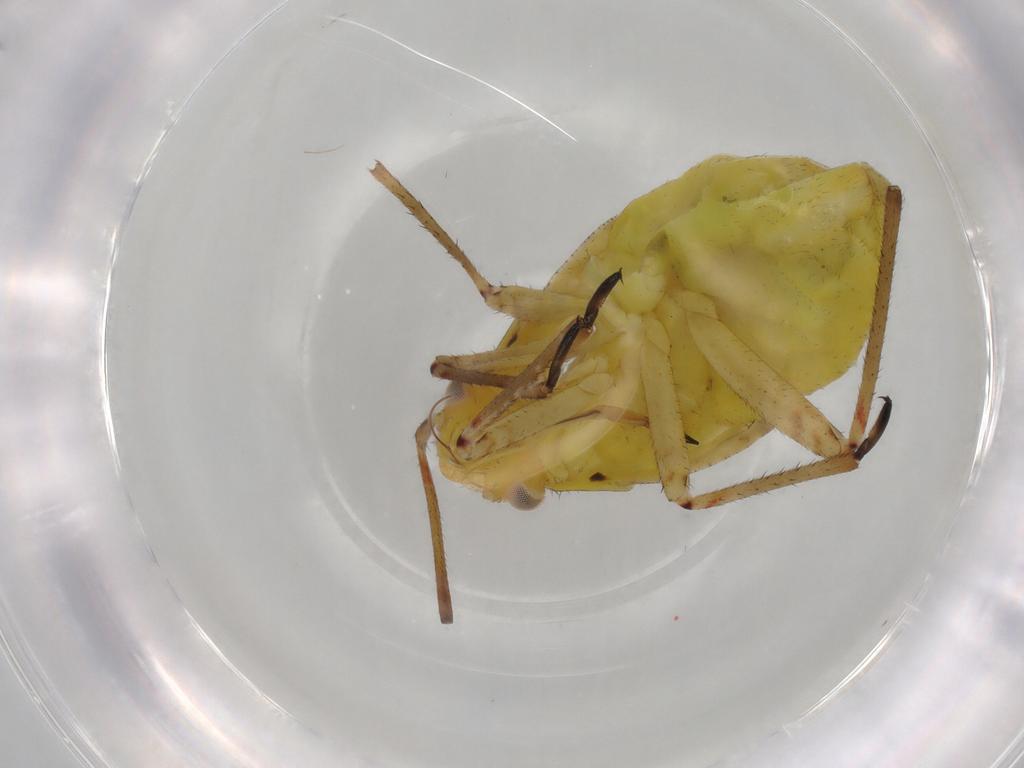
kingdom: Animalia
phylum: Arthropoda
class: Insecta
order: Hemiptera
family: Miridae
